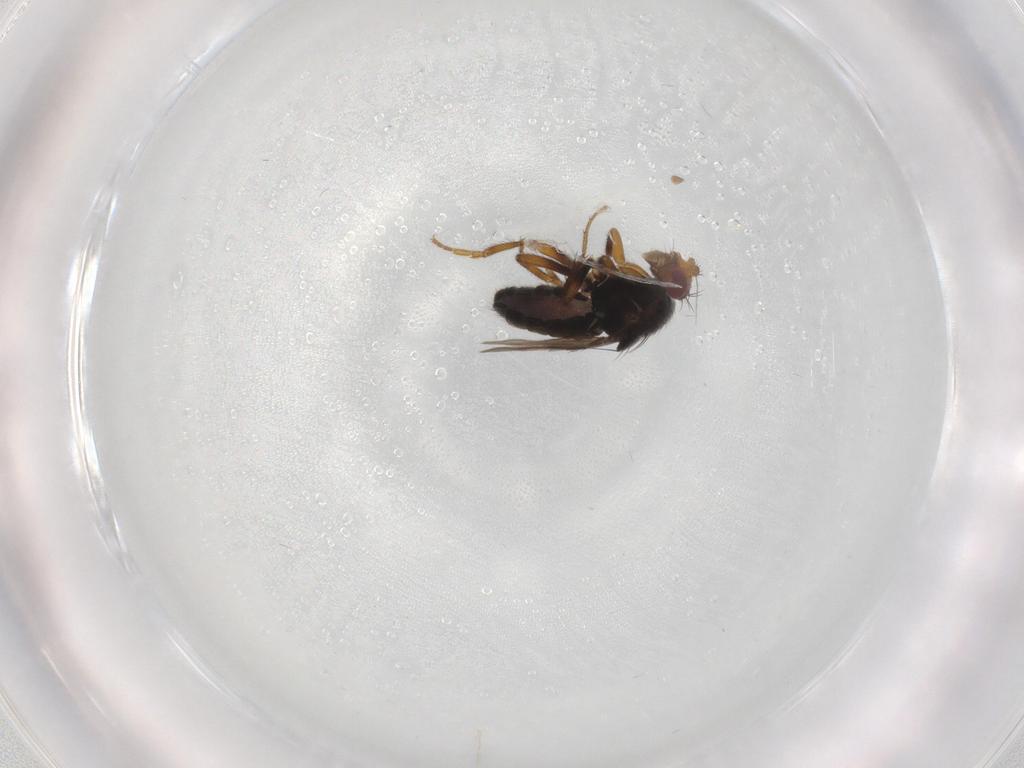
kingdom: Animalia
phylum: Arthropoda
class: Insecta
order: Diptera
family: Sphaeroceridae
